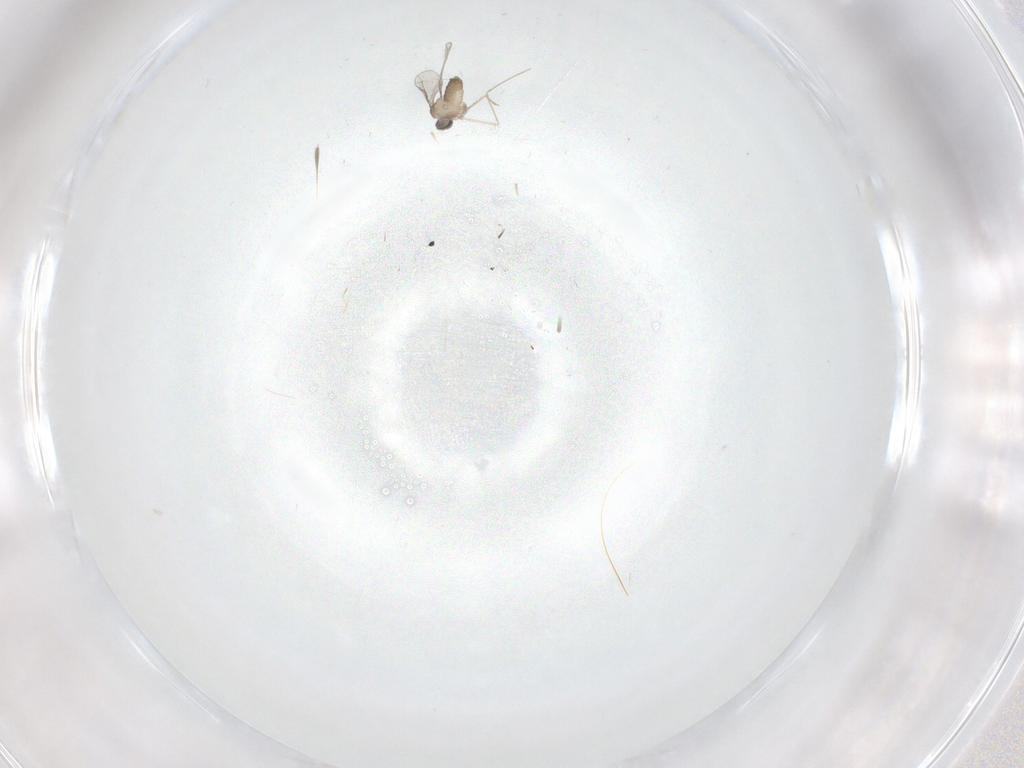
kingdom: Animalia
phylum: Arthropoda
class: Insecta
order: Diptera
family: Cecidomyiidae
